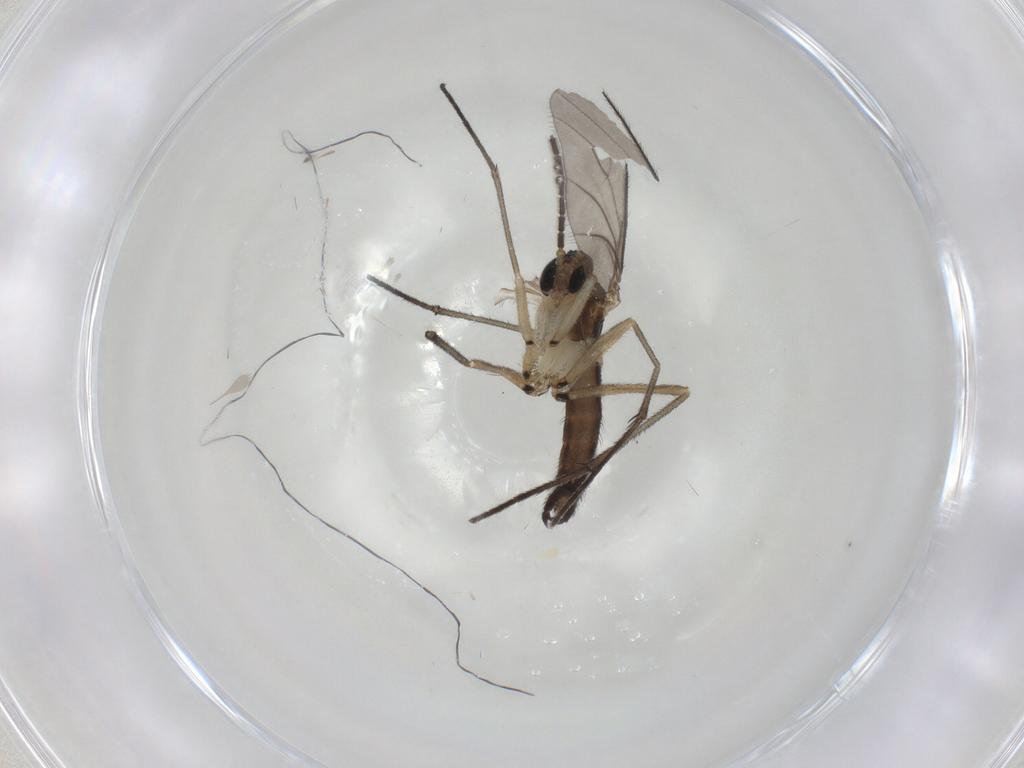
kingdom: Animalia
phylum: Arthropoda
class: Insecta
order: Diptera
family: Sciaridae
